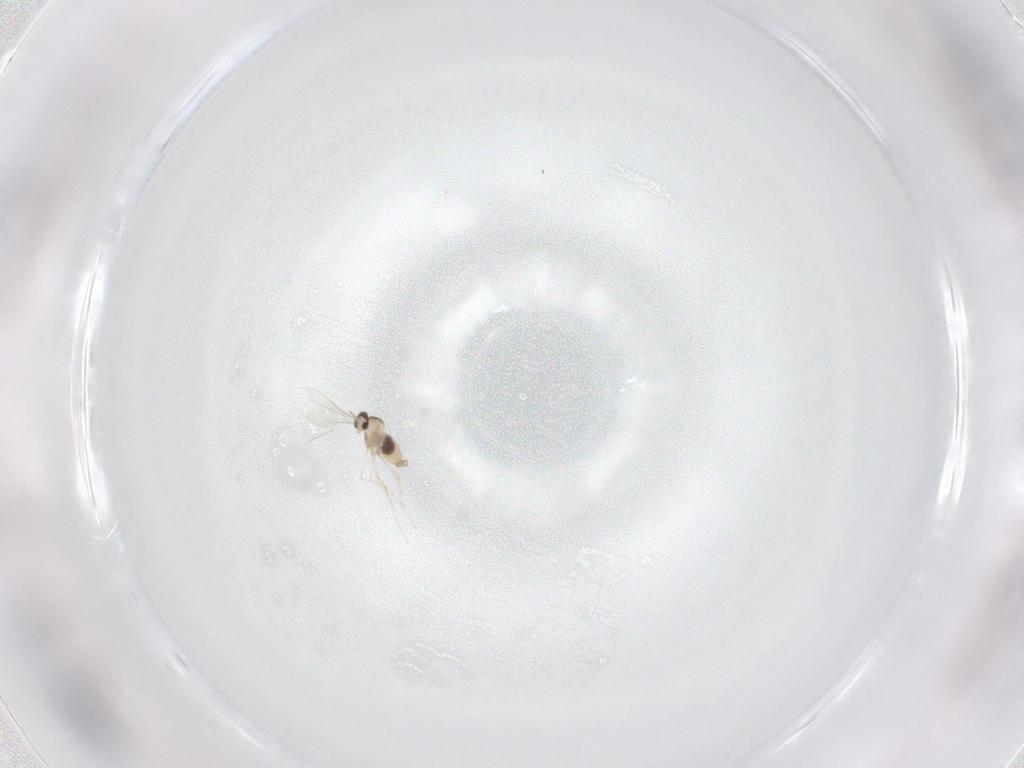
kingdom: Animalia
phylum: Arthropoda
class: Insecta
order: Diptera
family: Cecidomyiidae
